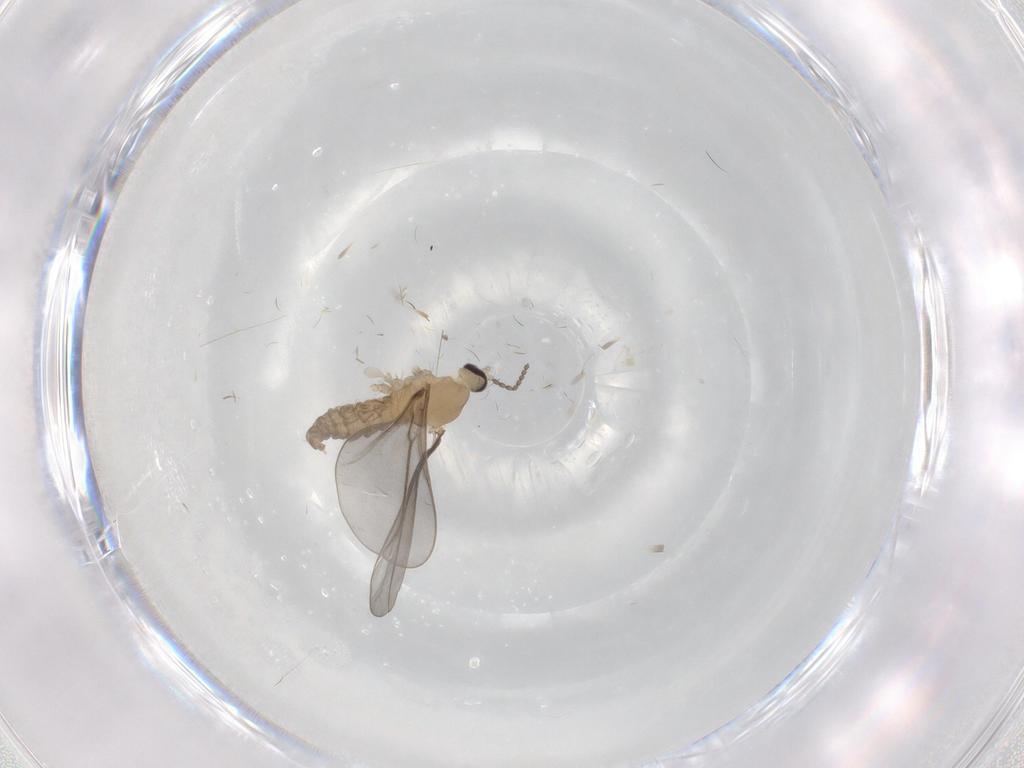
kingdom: Animalia
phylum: Arthropoda
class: Insecta
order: Diptera
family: Cecidomyiidae
